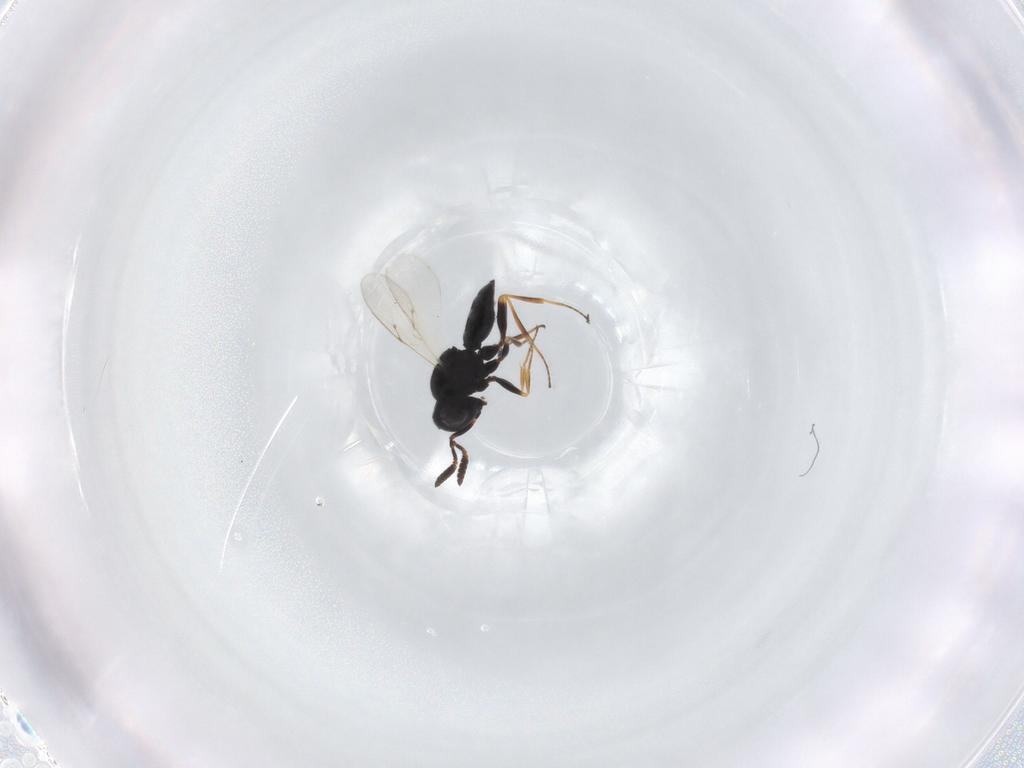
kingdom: Animalia
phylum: Arthropoda
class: Insecta
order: Hymenoptera
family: Scelionidae
